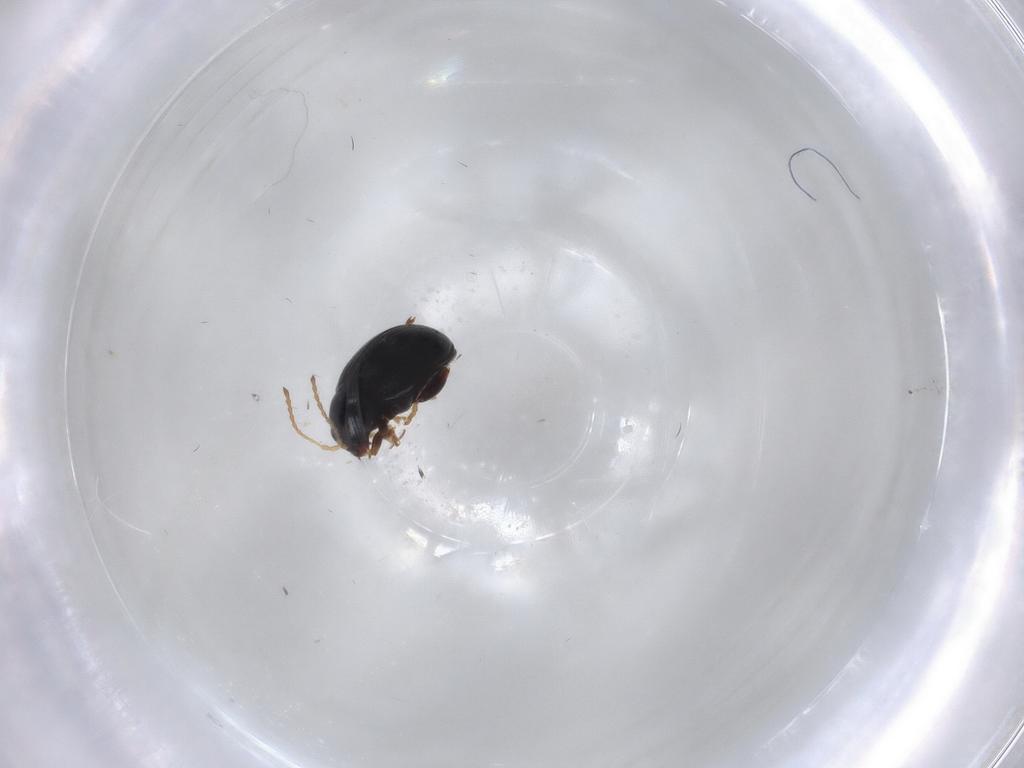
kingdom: Animalia
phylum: Arthropoda
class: Insecta
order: Coleoptera
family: Chrysomelidae
